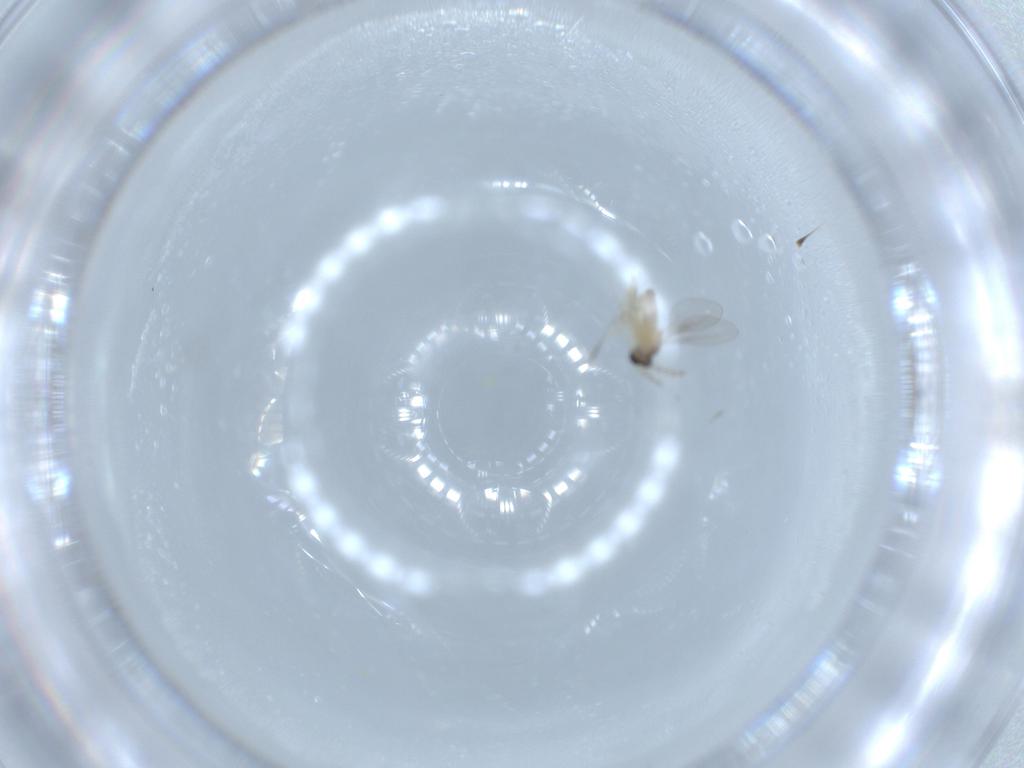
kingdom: Animalia
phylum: Arthropoda
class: Insecta
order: Diptera
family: Cecidomyiidae
